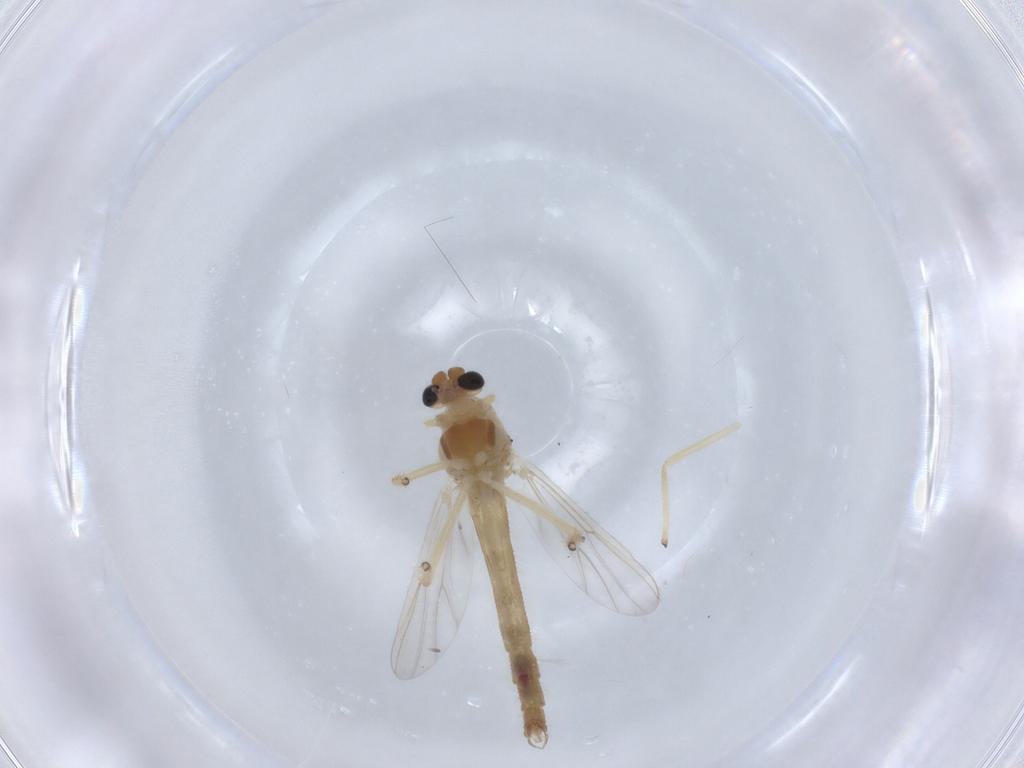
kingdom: Animalia
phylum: Arthropoda
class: Insecta
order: Diptera
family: Chironomidae
